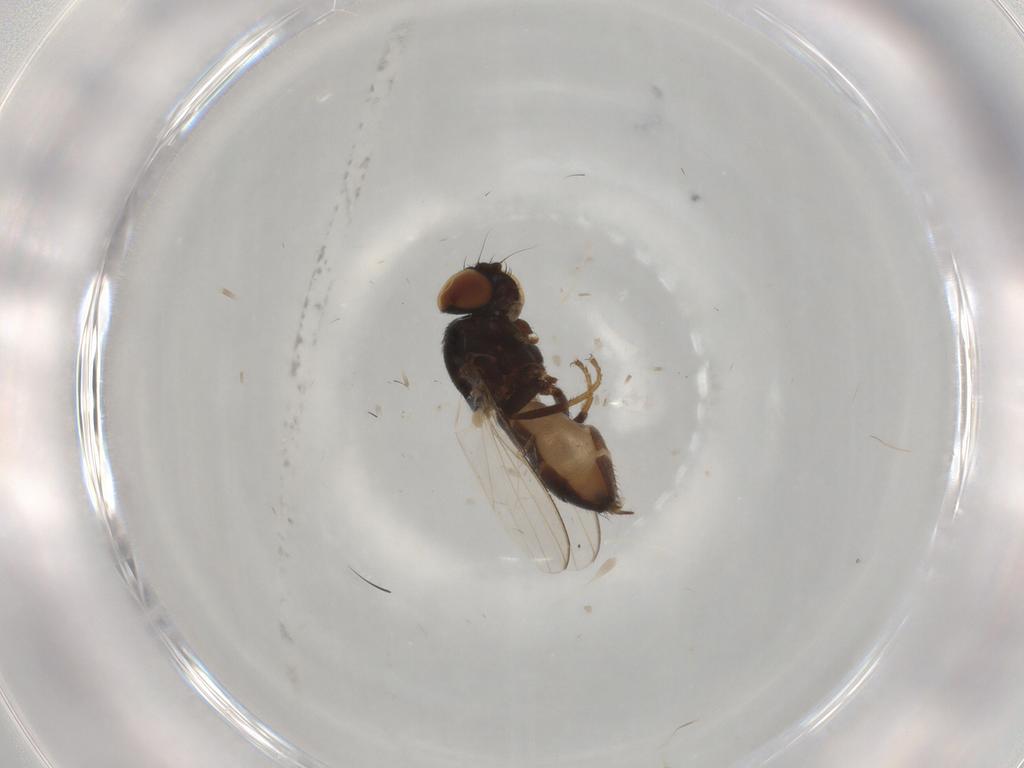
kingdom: Animalia
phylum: Arthropoda
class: Insecta
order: Diptera
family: Milichiidae
